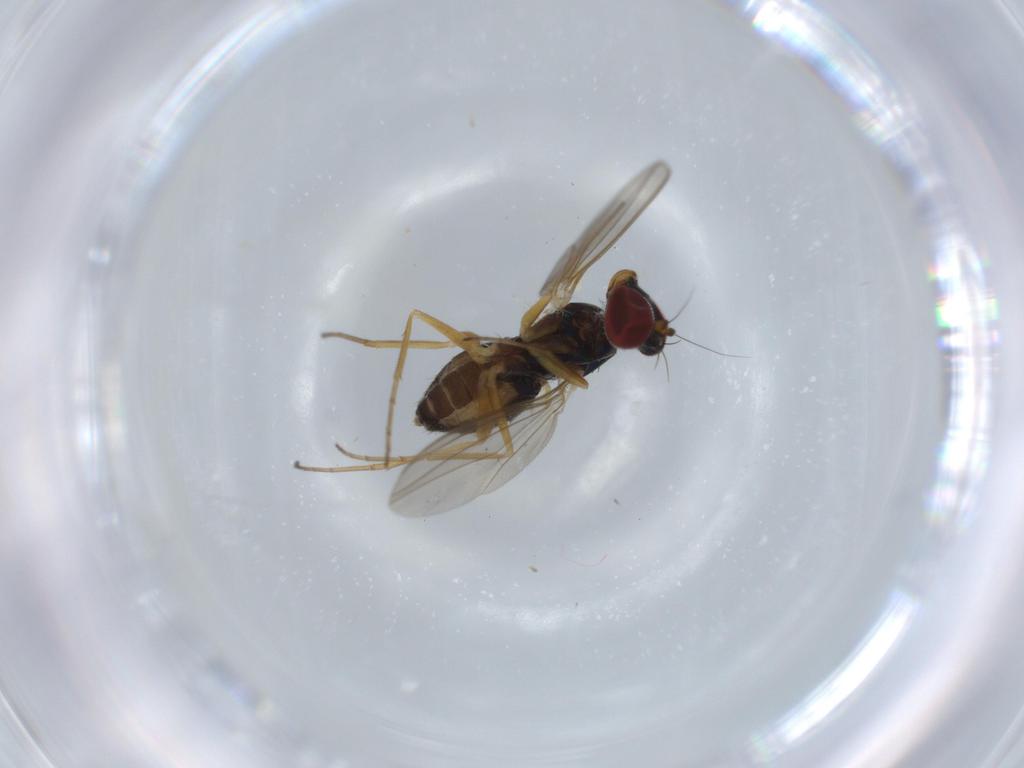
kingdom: Animalia
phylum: Arthropoda
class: Insecta
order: Diptera
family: Dolichopodidae
